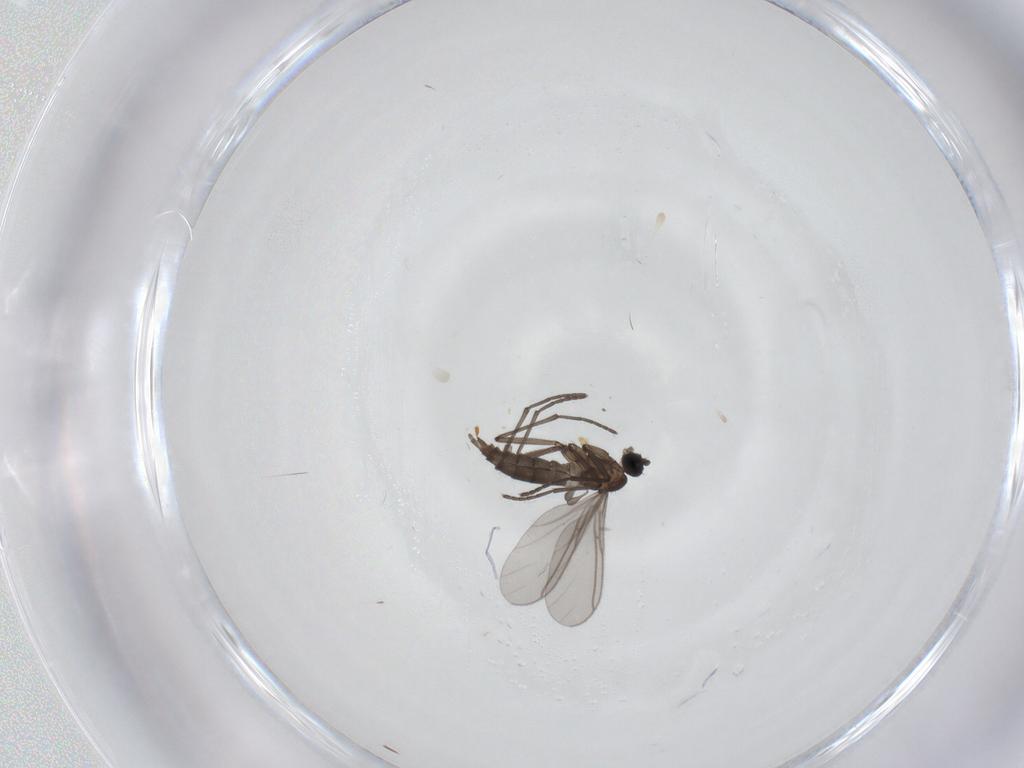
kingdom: Animalia
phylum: Arthropoda
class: Insecta
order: Diptera
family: Sciaridae
